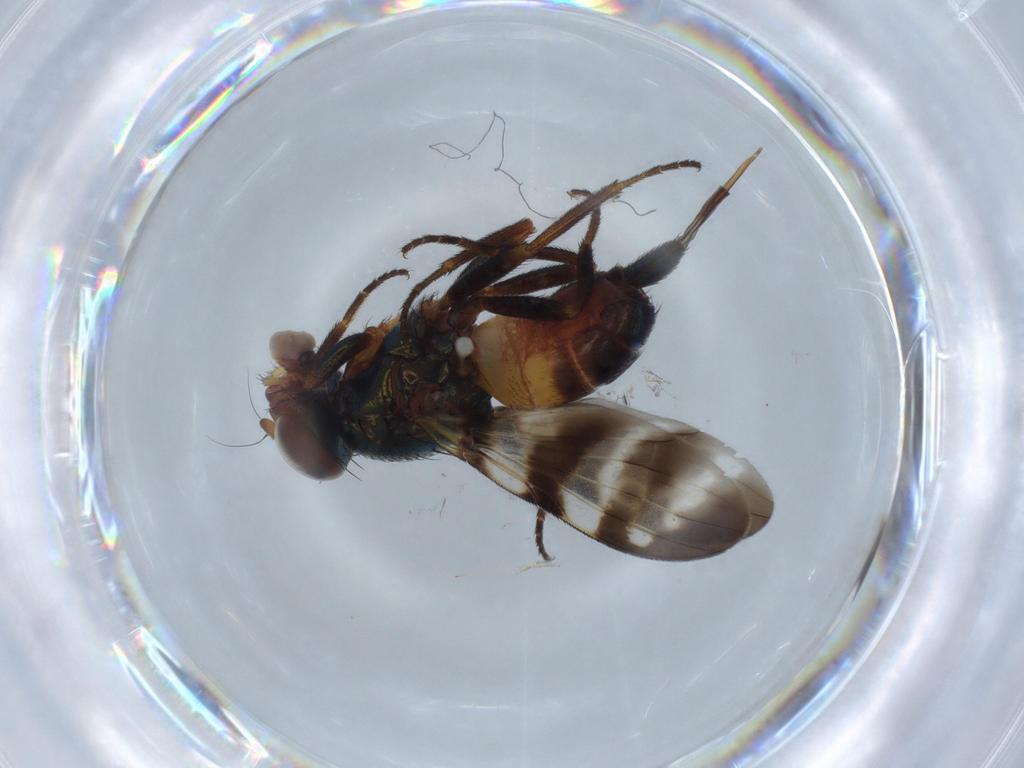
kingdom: Animalia
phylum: Arthropoda
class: Insecta
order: Diptera
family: Ulidiidae
